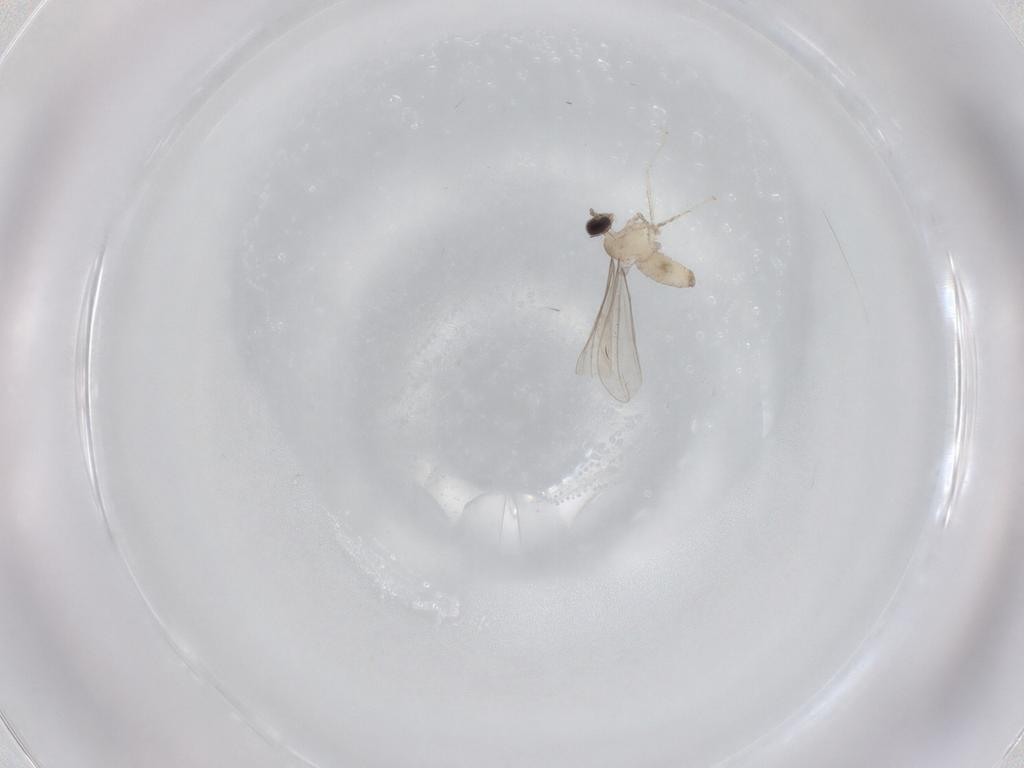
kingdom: Animalia
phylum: Arthropoda
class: Insecta
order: Diptera
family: Cecidomyiidae
